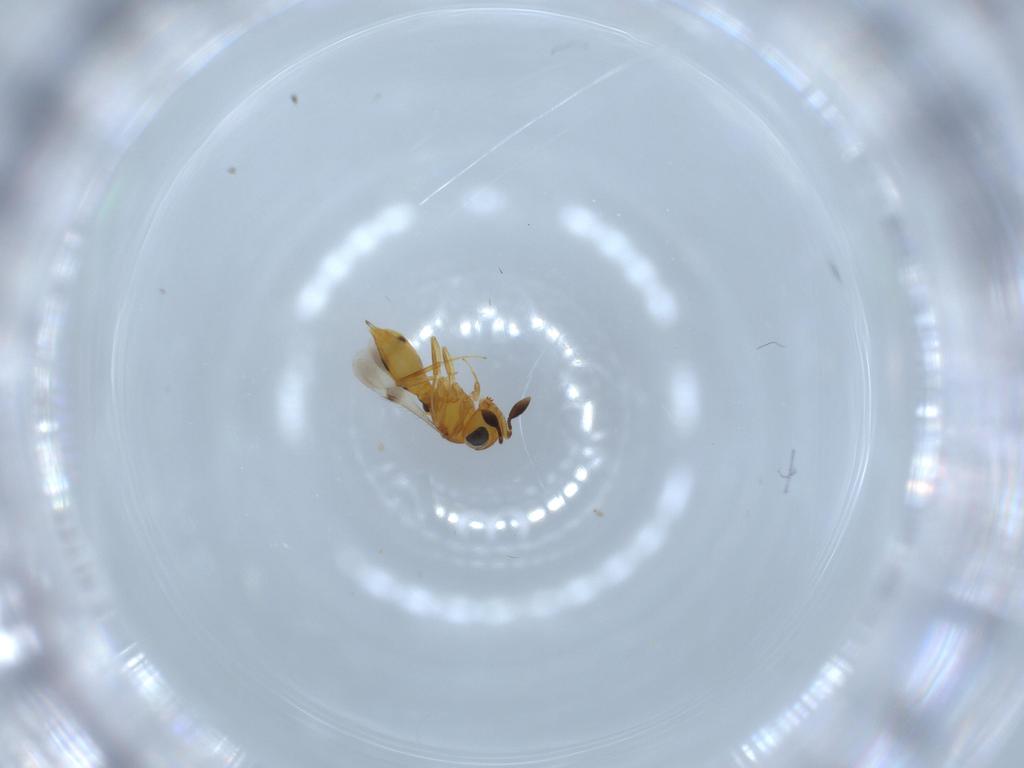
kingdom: Animalia
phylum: Arthropoda
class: Insecta
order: Hymenoptera
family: Scelionidae
